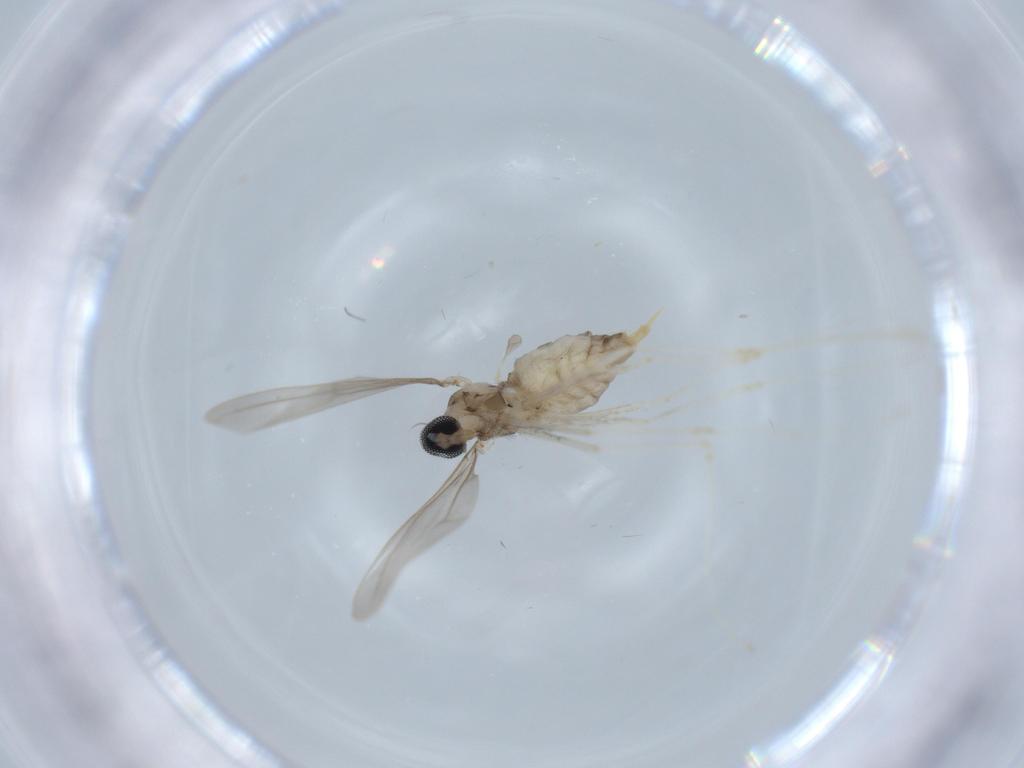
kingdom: Animalia
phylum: Arthropoda
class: Insecta
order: Diptera
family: Cecidomyiidae
